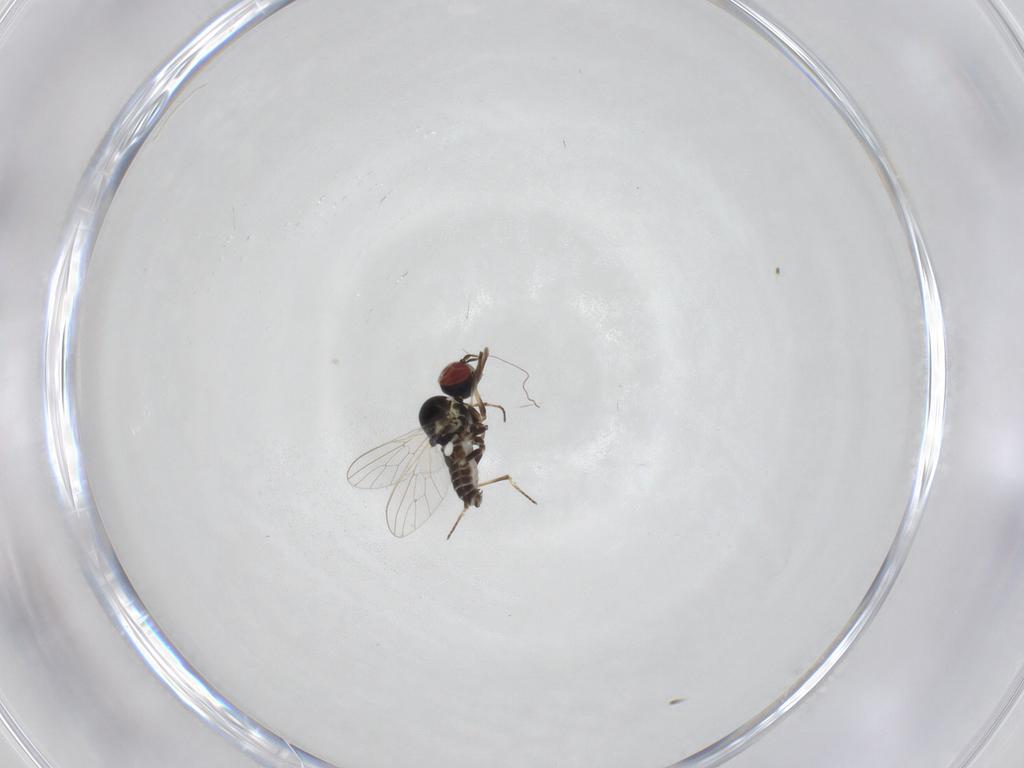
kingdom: Animalia
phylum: Arthropoda
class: Insecta
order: Diptera
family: Mythicomyiidae
